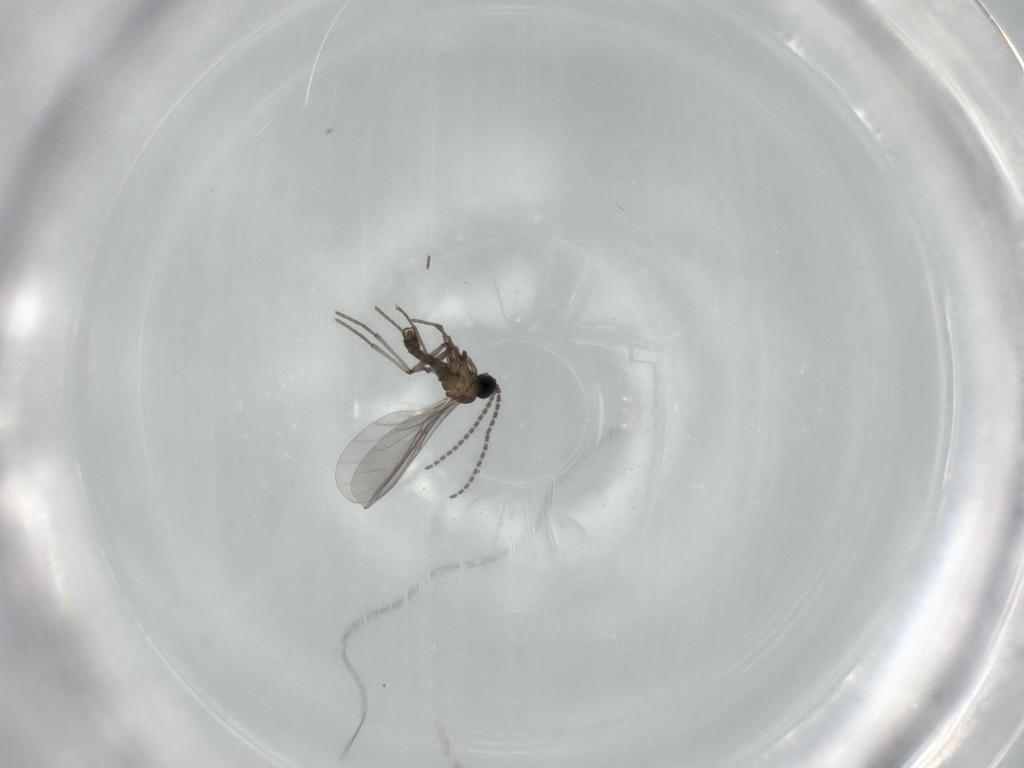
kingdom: Animalia
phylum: Arthropoda
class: Insecta
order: Diptera
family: Sciaridae
